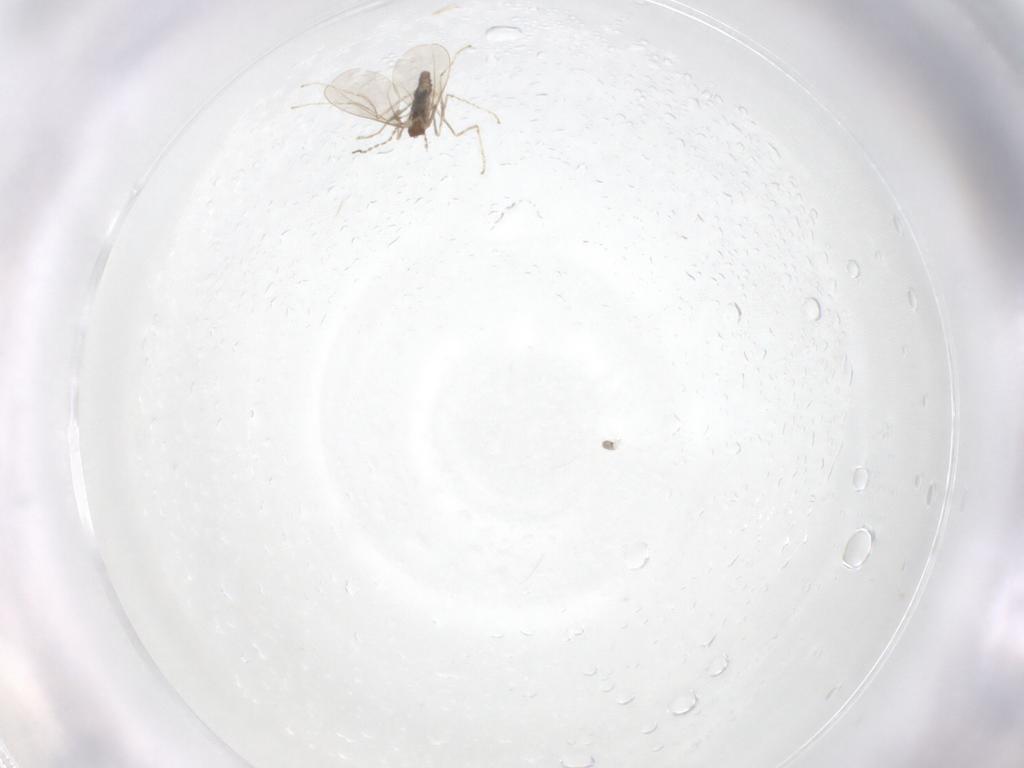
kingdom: Animalia
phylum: Arthropoda
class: Insecta
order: Diptera
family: Cecidomyiidae
